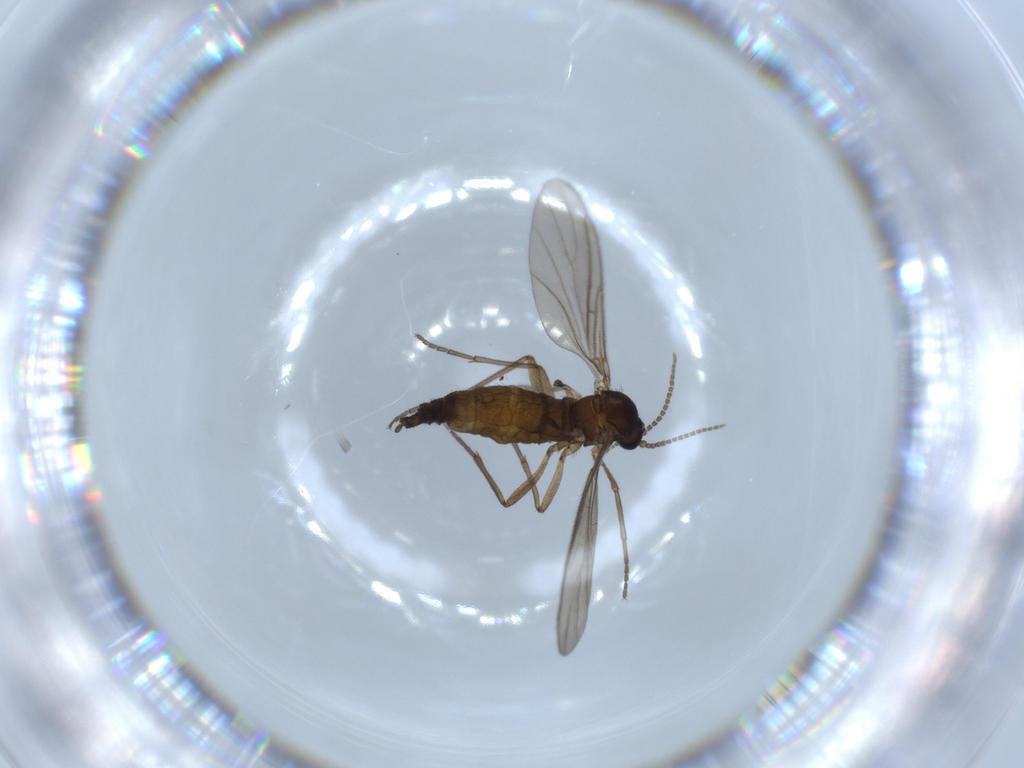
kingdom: Animalia
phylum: Arthropoda
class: Insecta
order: Diptera
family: Sciaridae
